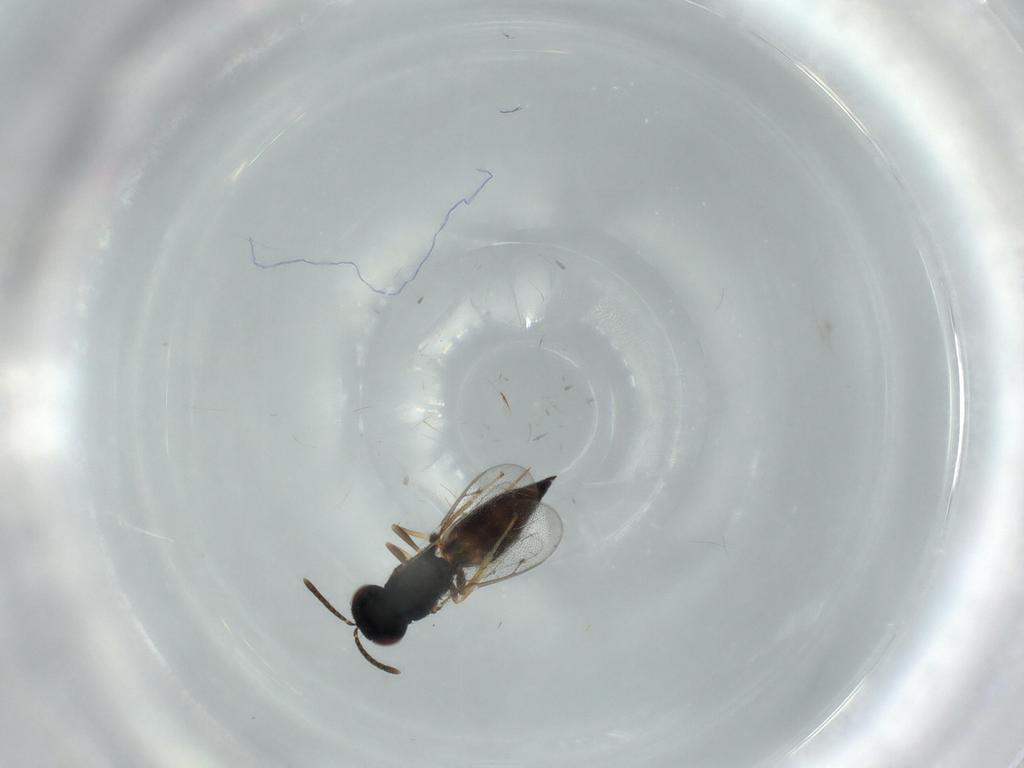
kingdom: Animalia
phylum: Arthropoda
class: Insecta
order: Hymenoptera
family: Pteromalidae
